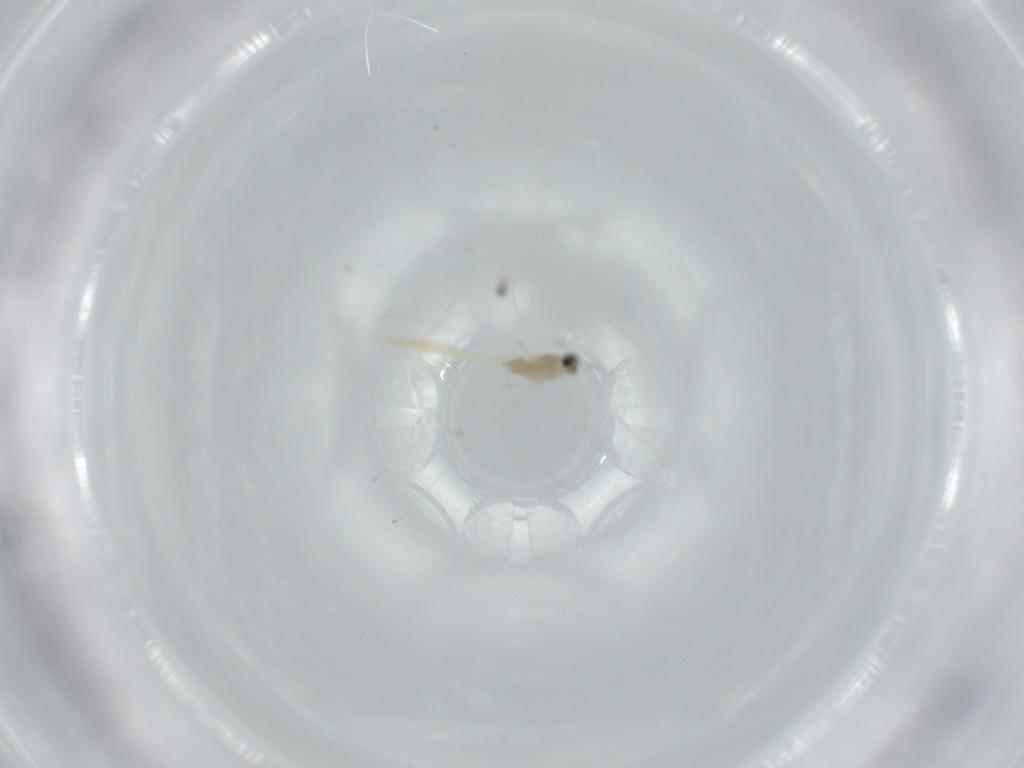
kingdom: Animalia
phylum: Arthropoda
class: Insecta
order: Diptera
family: Cecidomyiidae
